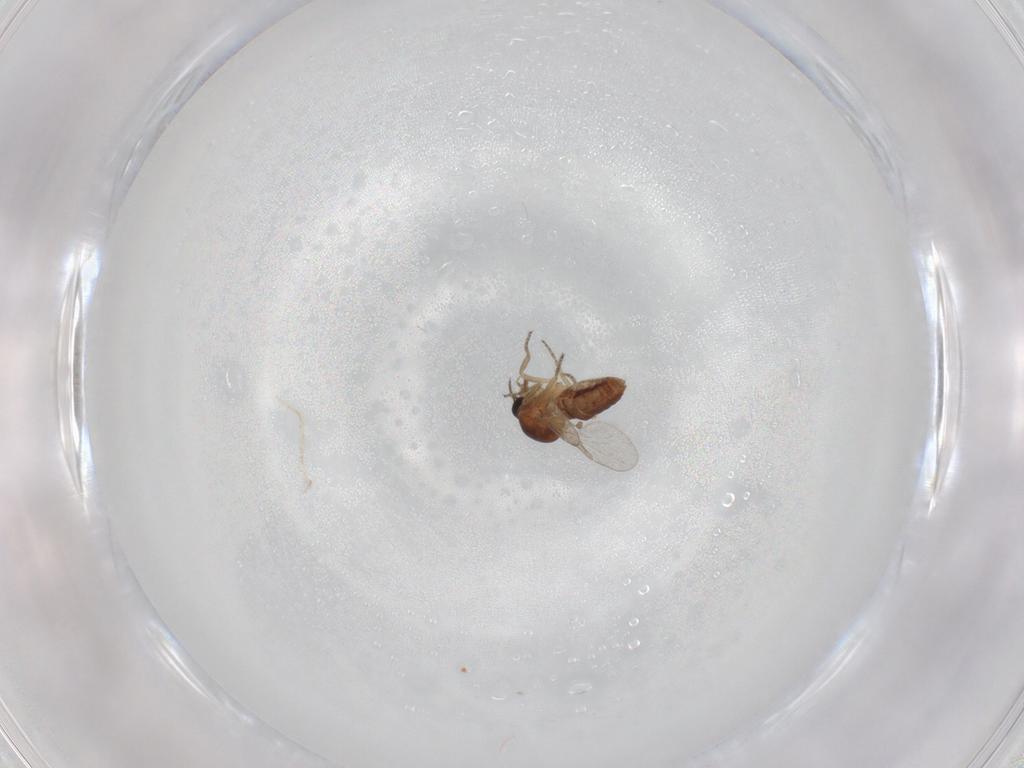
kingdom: Animalia
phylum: Arthropoda
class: Insecta
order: Diptera
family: Ceratopogonidae
